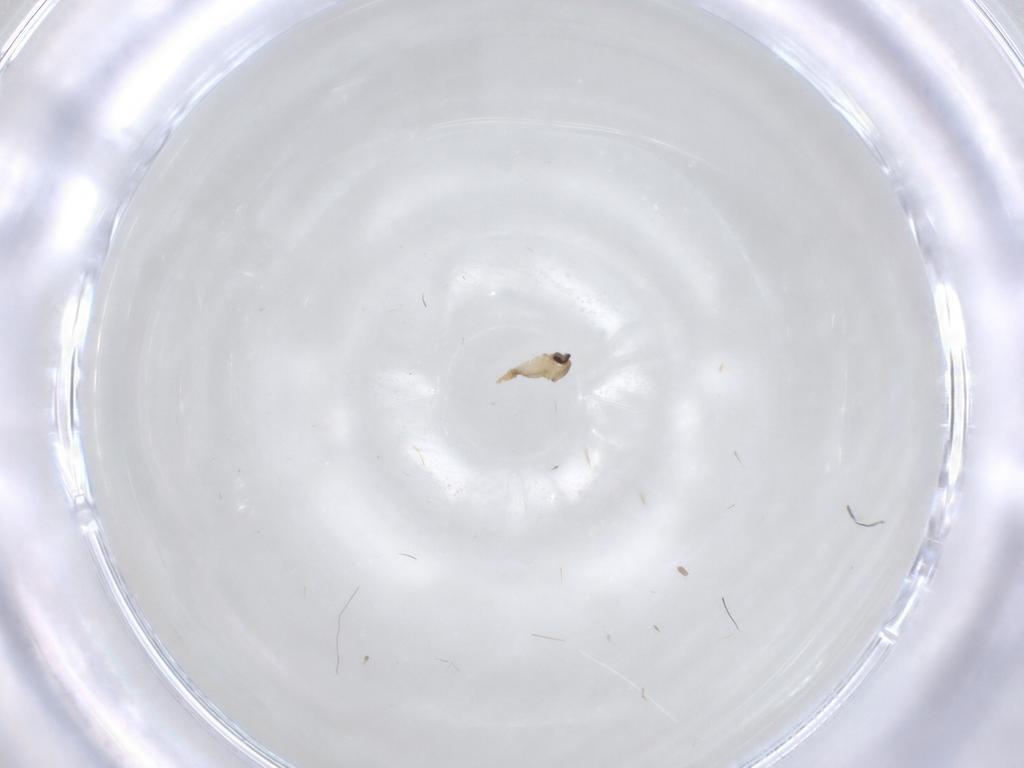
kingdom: Animalia
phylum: Arthropoda
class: Insecta
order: Diptera
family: Cecidomyiidae
